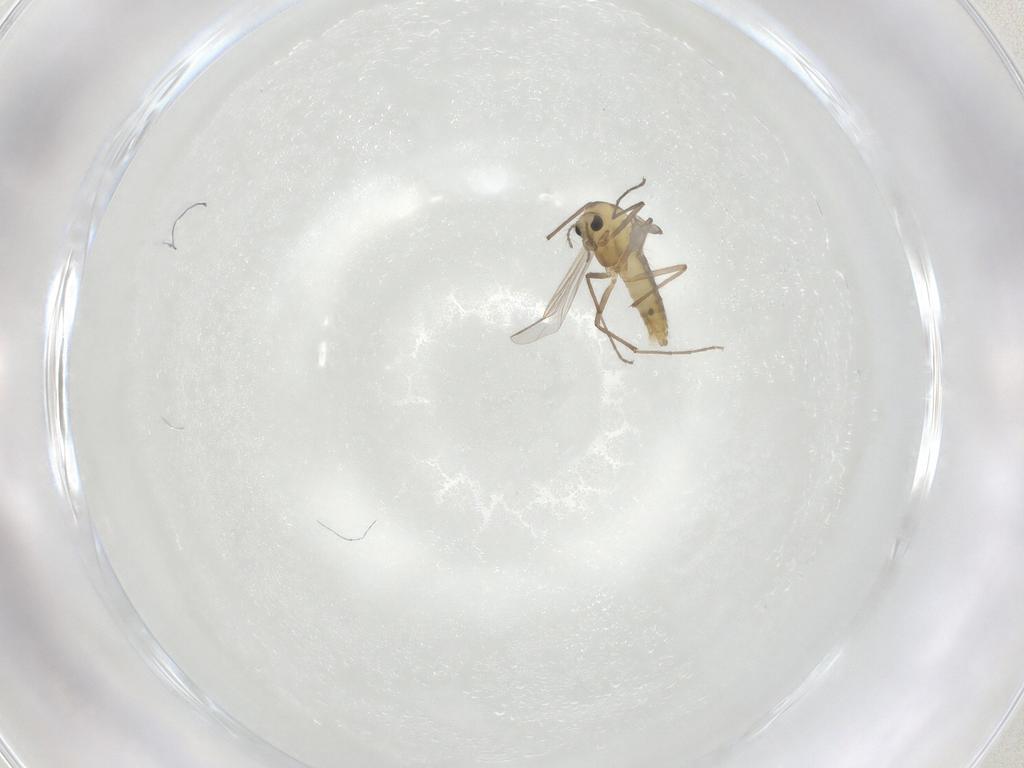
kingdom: Animalia
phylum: Arthropoda
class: Insecta
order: Diptera
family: Chironomidae
